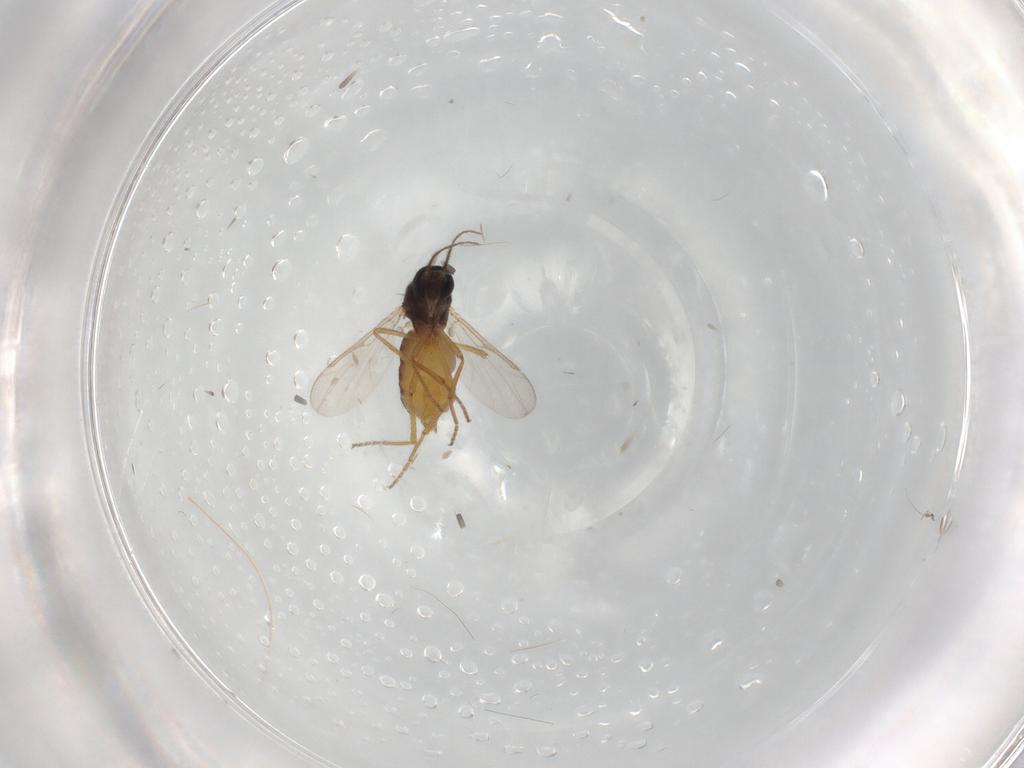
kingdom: Animalia
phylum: Arthropoda
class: Insecta
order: Diptera
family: Ceratopogonidae
